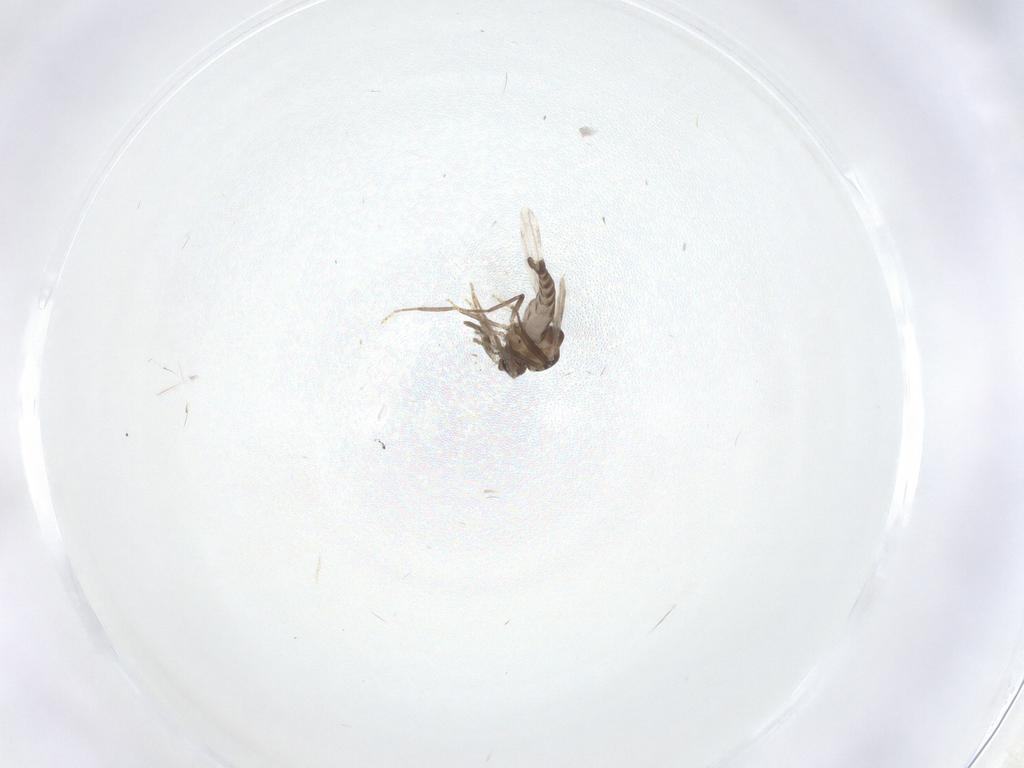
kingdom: Animalia
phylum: Arthropoda
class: Insecta
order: Diptera
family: Ceratopogonidae
